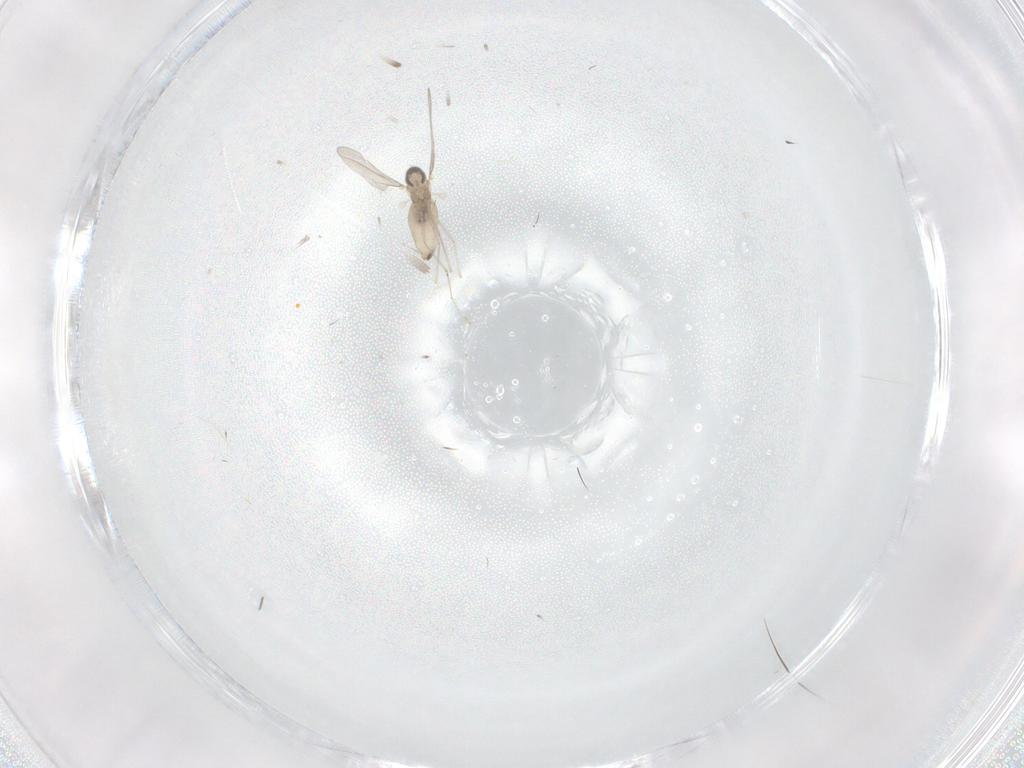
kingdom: Animalia
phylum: Arthropoda
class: Insecta
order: Diptera
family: Cecidomyiidae
